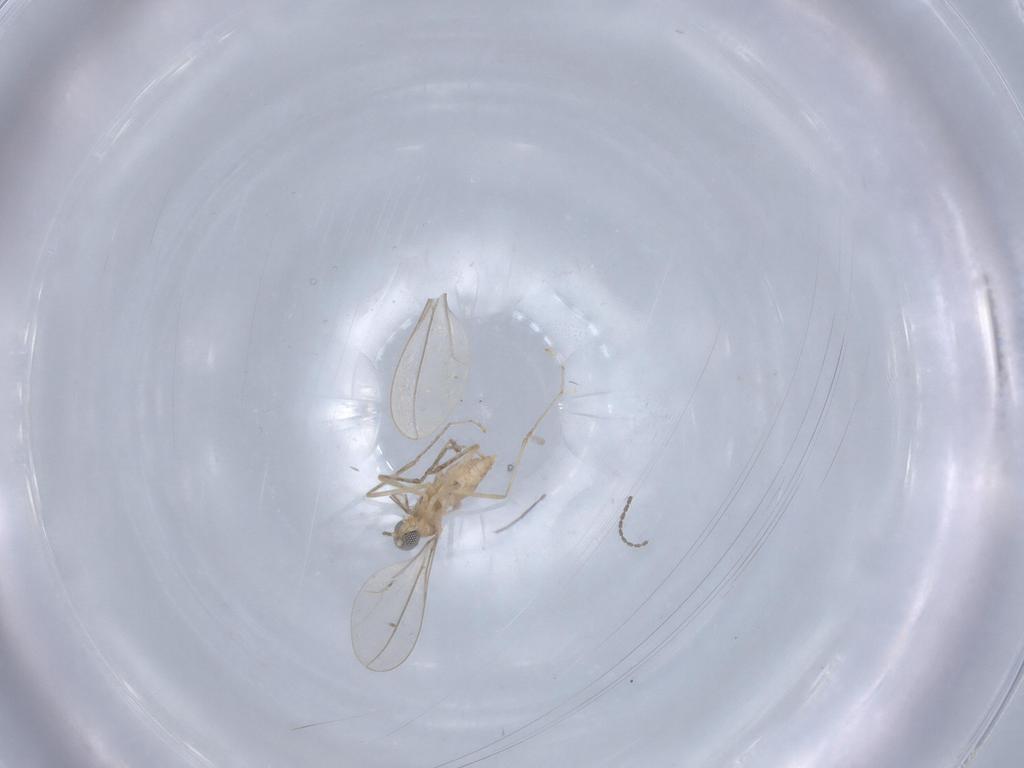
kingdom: Animalia
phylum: Arthropoda
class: Insecta
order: Diptera
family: Cecidomyiidae
